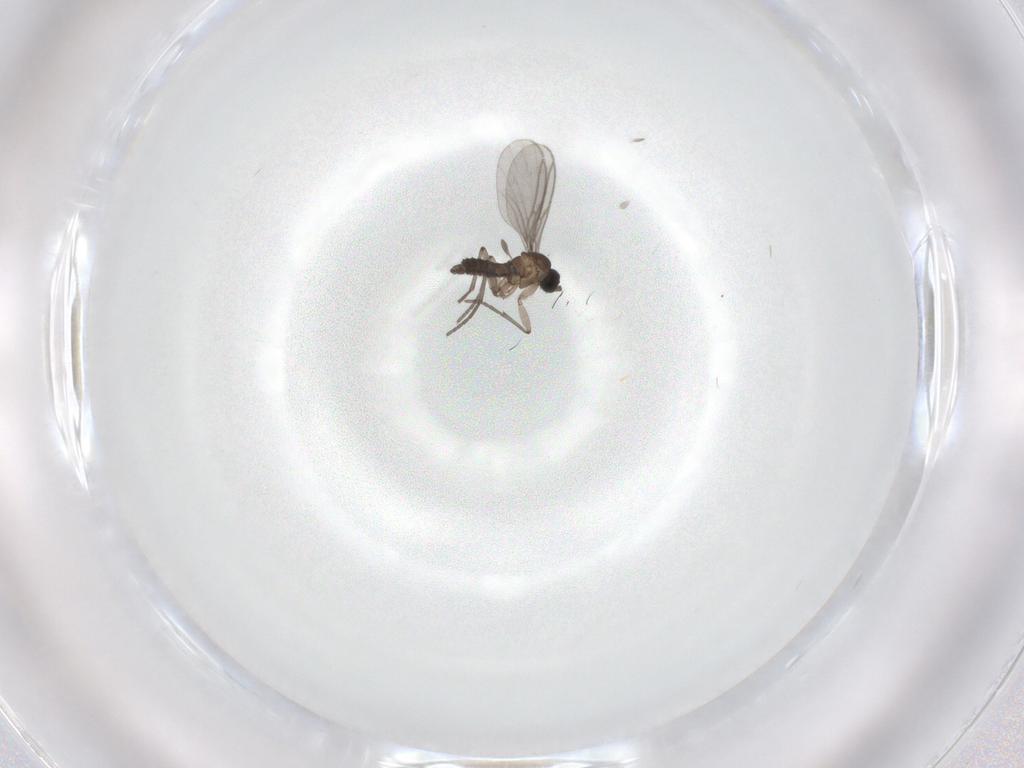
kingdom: Animalia
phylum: Arthropoda
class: Insecta
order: Diptera
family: Sciaridae
